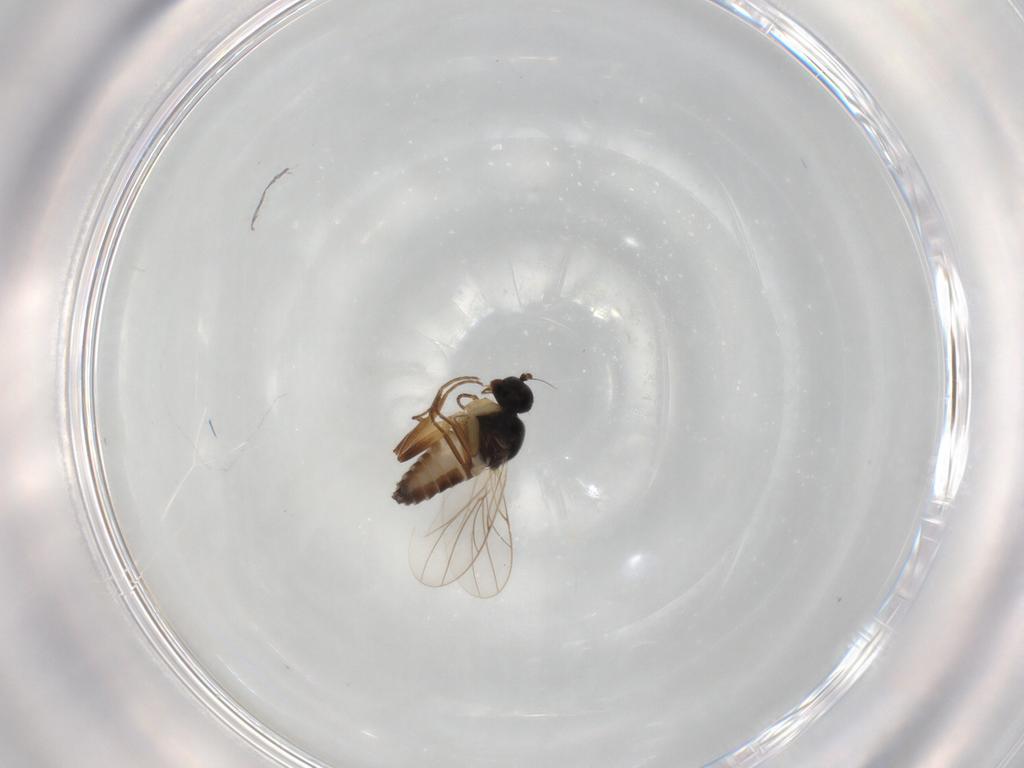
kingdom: Animalia
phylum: Arthropoda
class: Insecta
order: Diptera
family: Hybotidae
